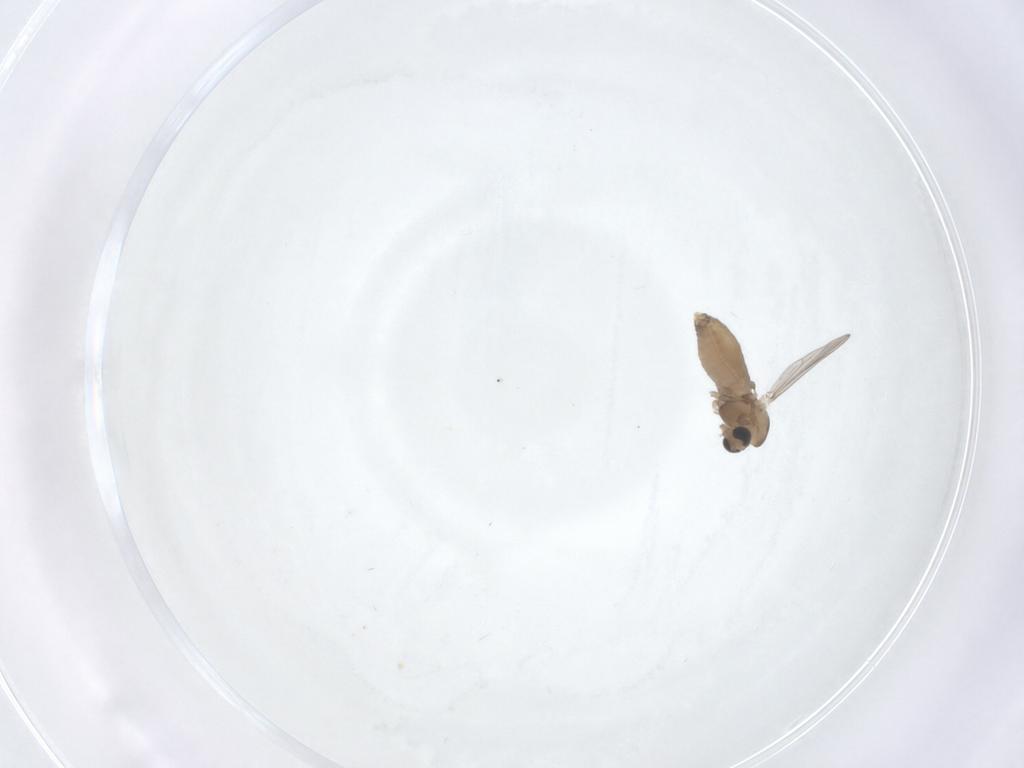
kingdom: Animalia
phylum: Arthropoda
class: Insecta
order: Diptera
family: Chironomidae
